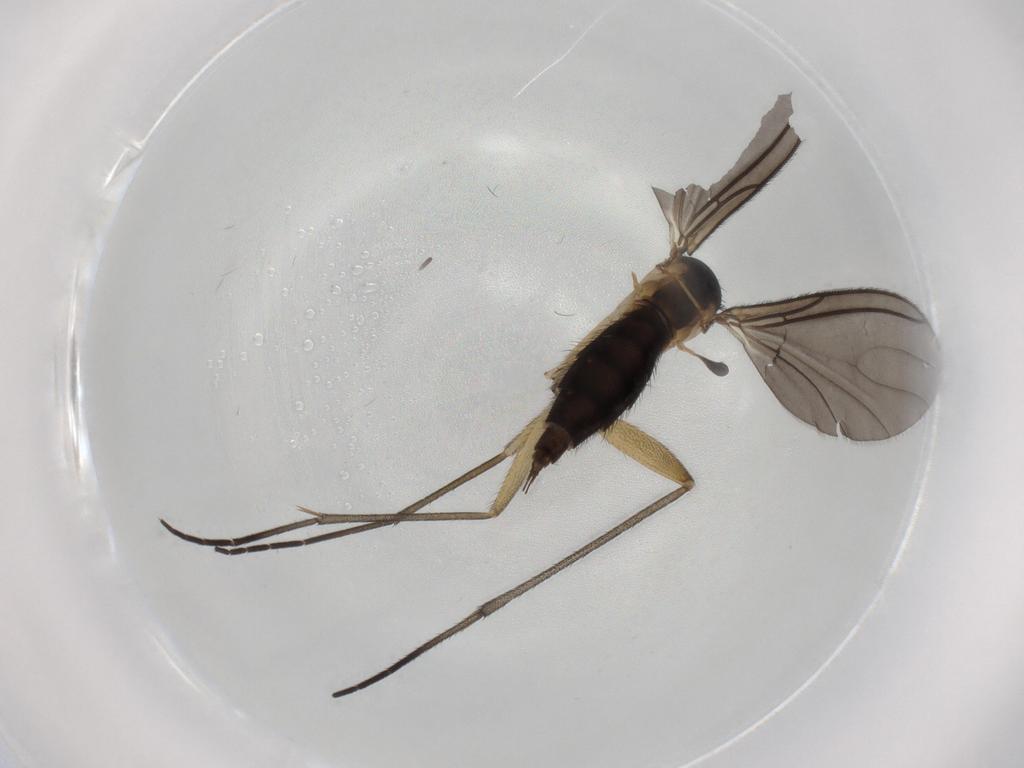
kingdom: Animalia
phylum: Arthropoda
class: Insecta
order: Diptera
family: Sciaridae
